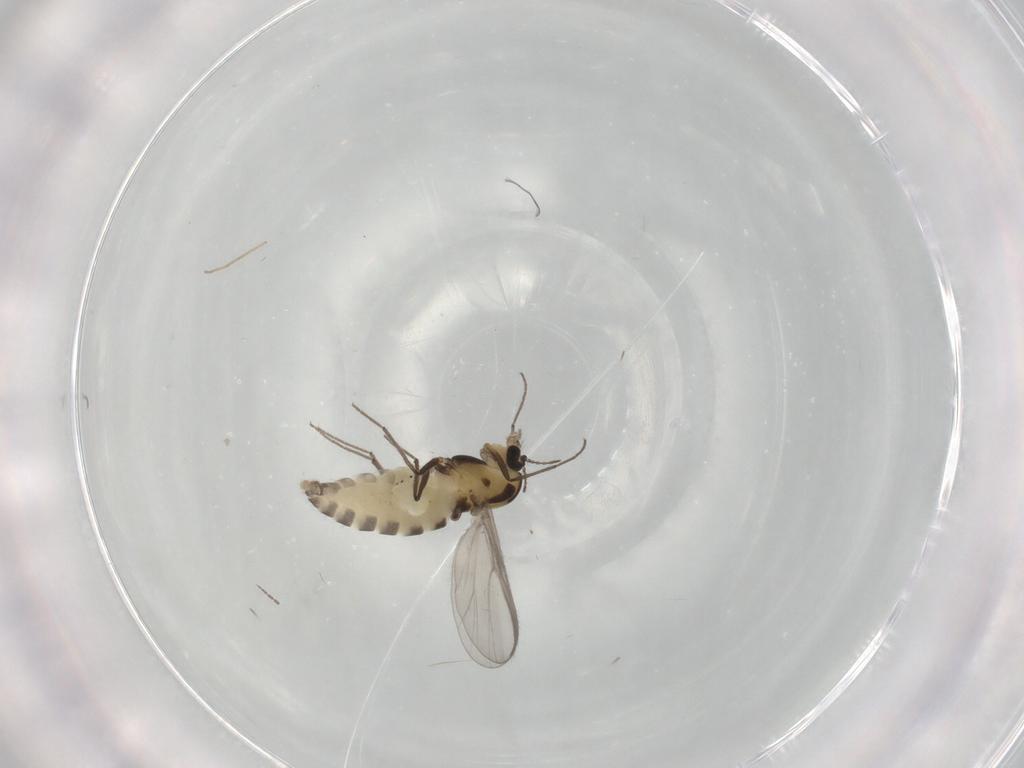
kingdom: Animalia
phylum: Arthropoda
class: Insecta
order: Diptera
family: Chironomidae
